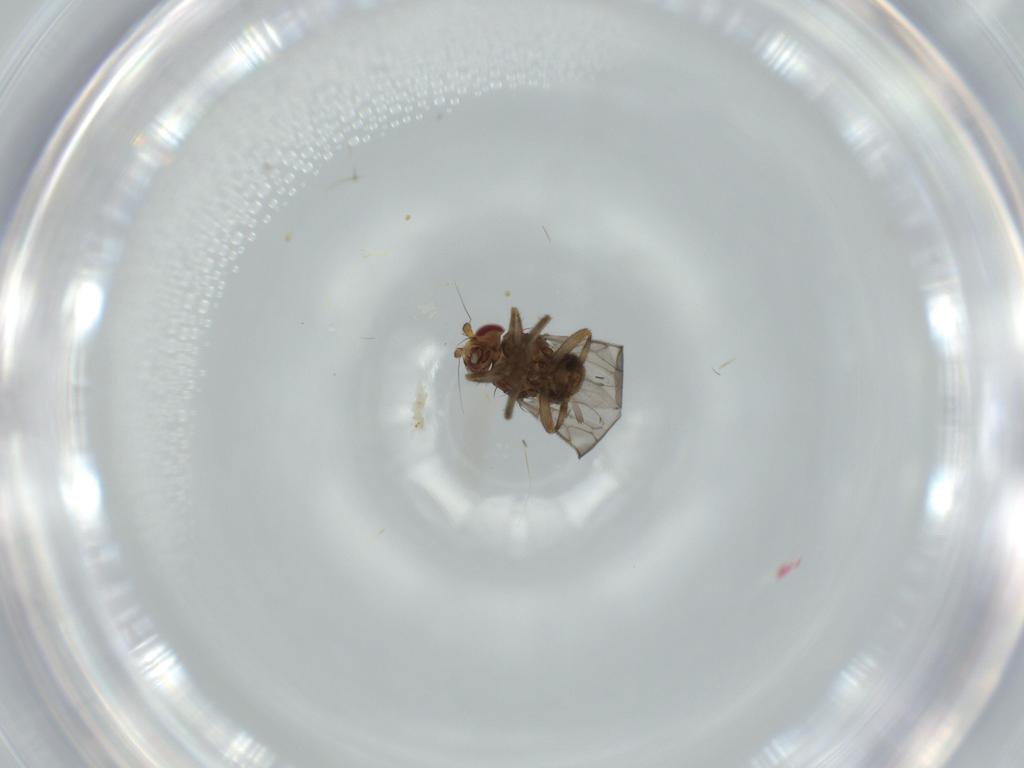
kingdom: Animalia
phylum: Arthropoda
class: Insecta
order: Diptera
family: Sphaeroceridae
